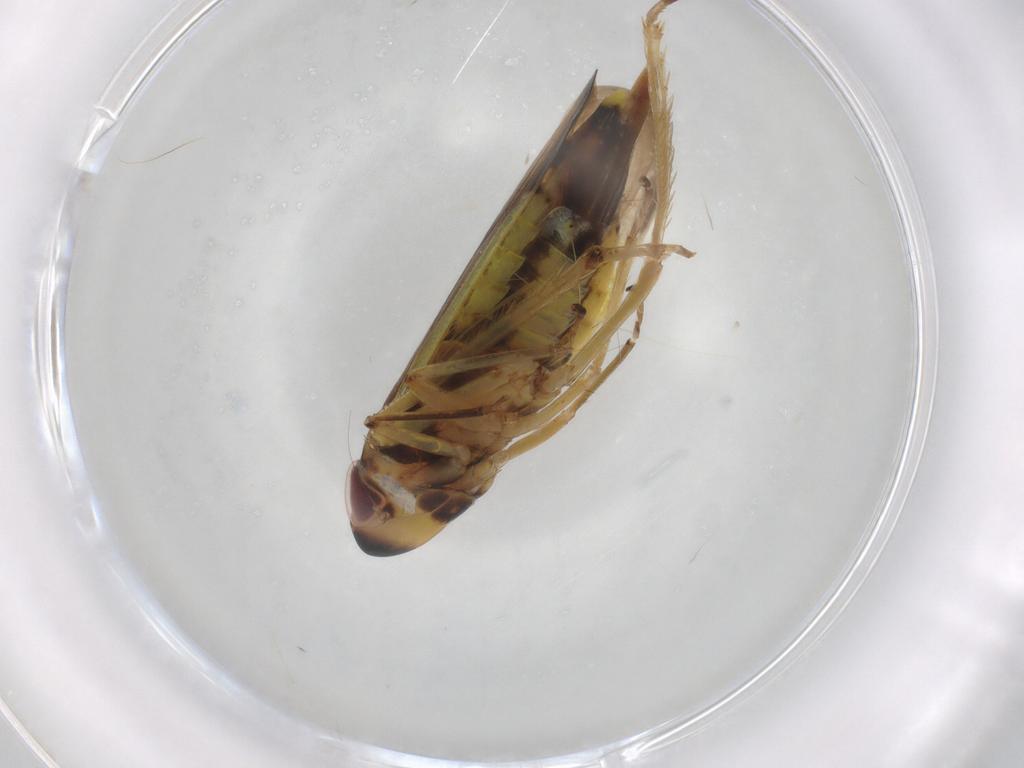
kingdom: Animalia
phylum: Arthropoda
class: Insecta
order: Hemiptera
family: Cicadellidae
